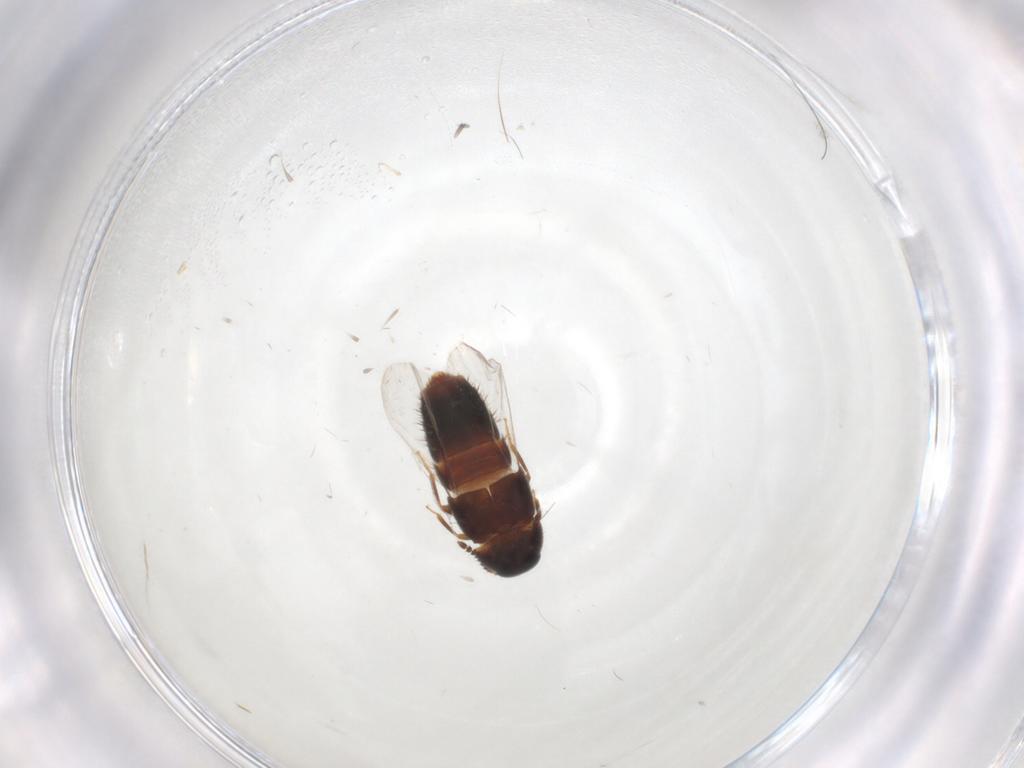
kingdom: Animalia
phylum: Arthropoda
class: Insecta
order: Coleoptera
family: Staphylinidae
